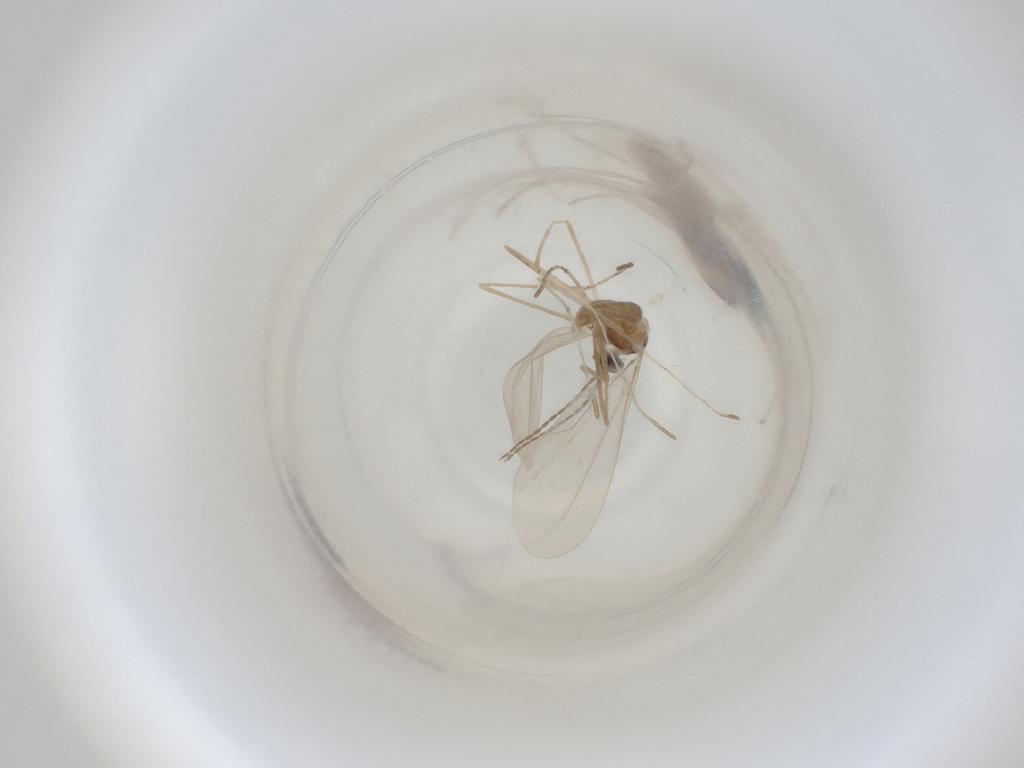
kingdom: Animalia
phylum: Arthropoda
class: Insecta
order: Diptera
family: Cecidomyiidae
